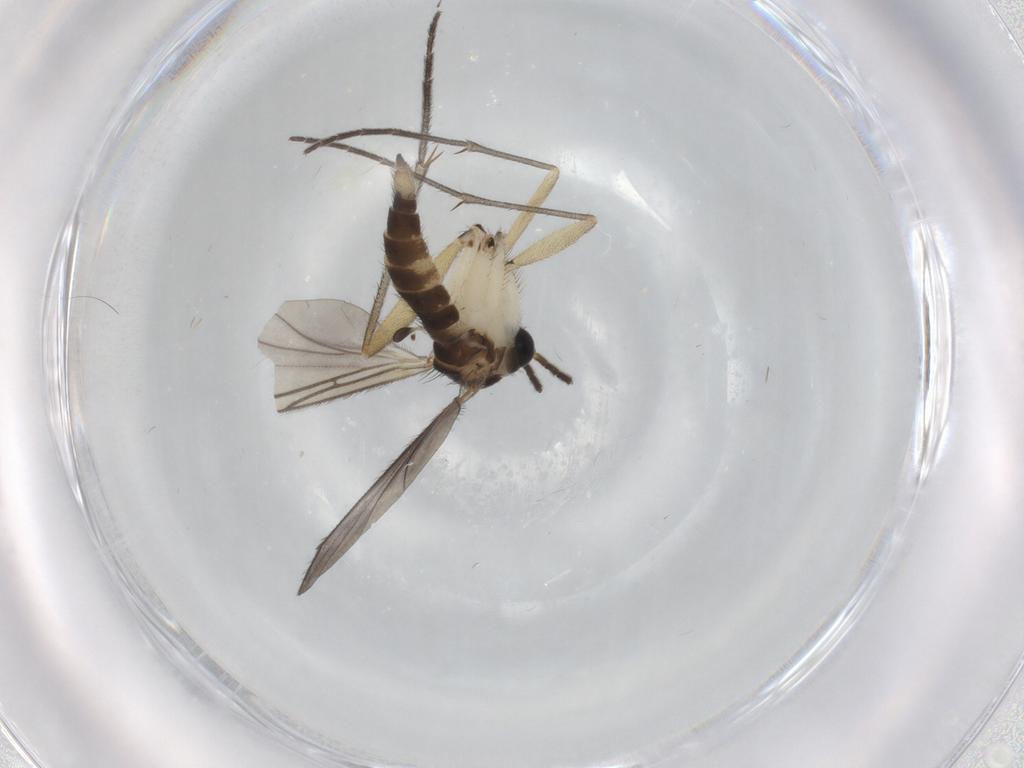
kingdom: Animalia
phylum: Arthropoda
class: Insecta
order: Diptera
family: Sciaridae
